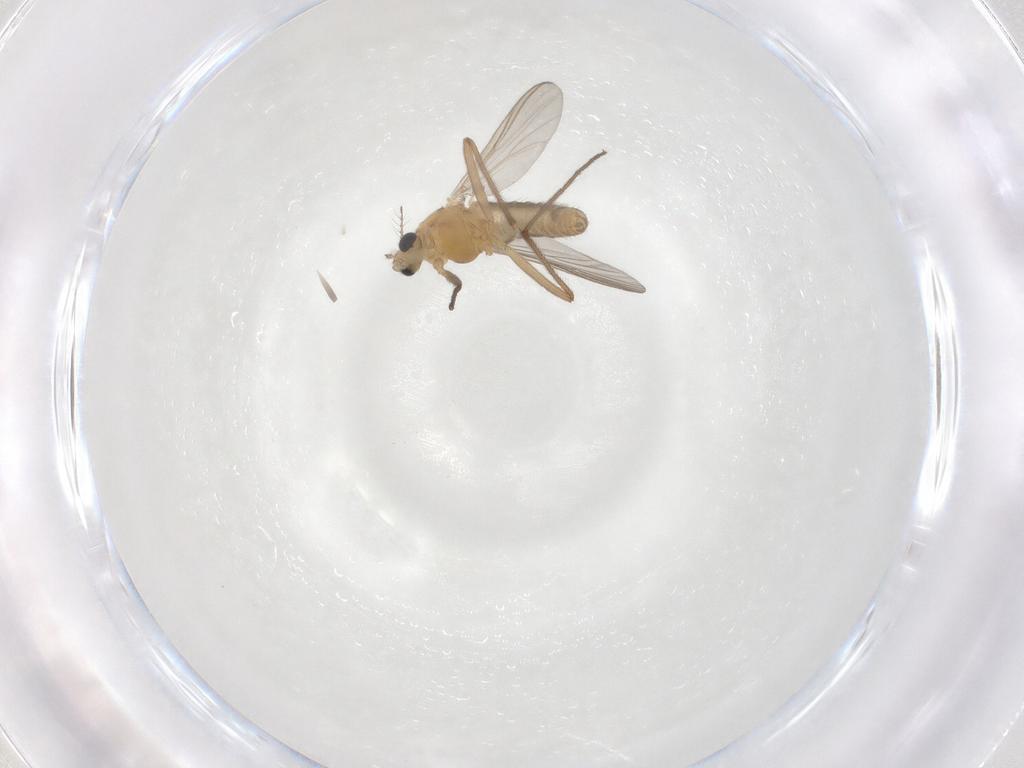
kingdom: Animalia
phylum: Arthropoda
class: Insecta
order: Diptera
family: Chironomidae
